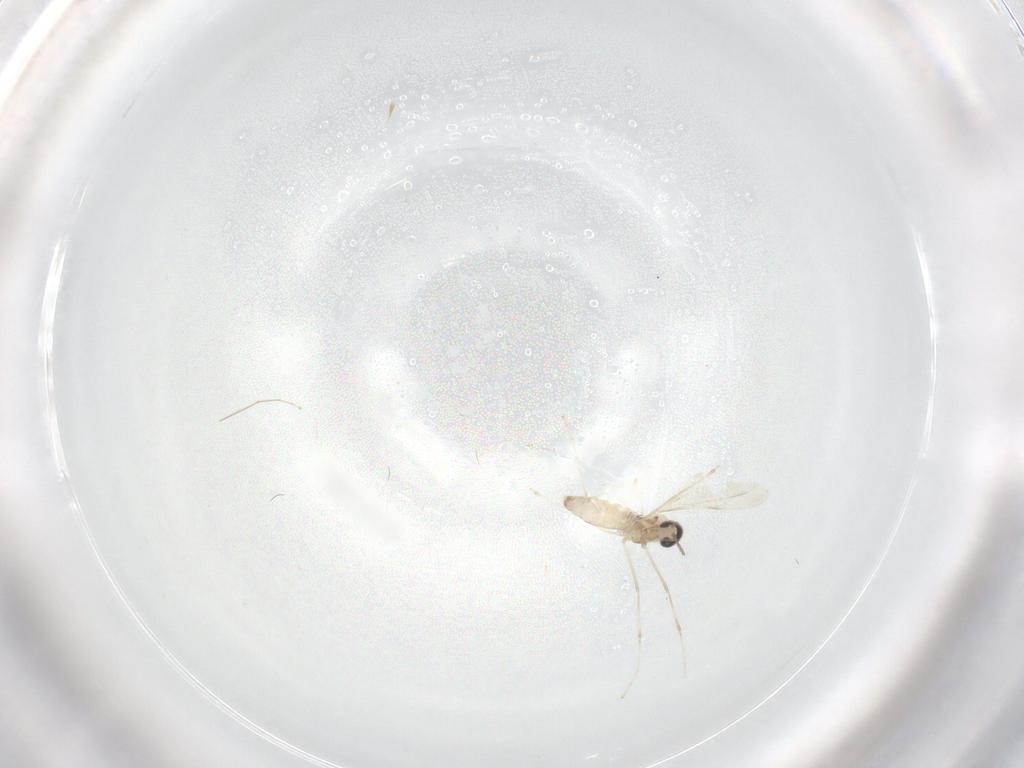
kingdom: Animalia
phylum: Arthropoda
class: Insecta
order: Diptera
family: Cecidomyiidae
